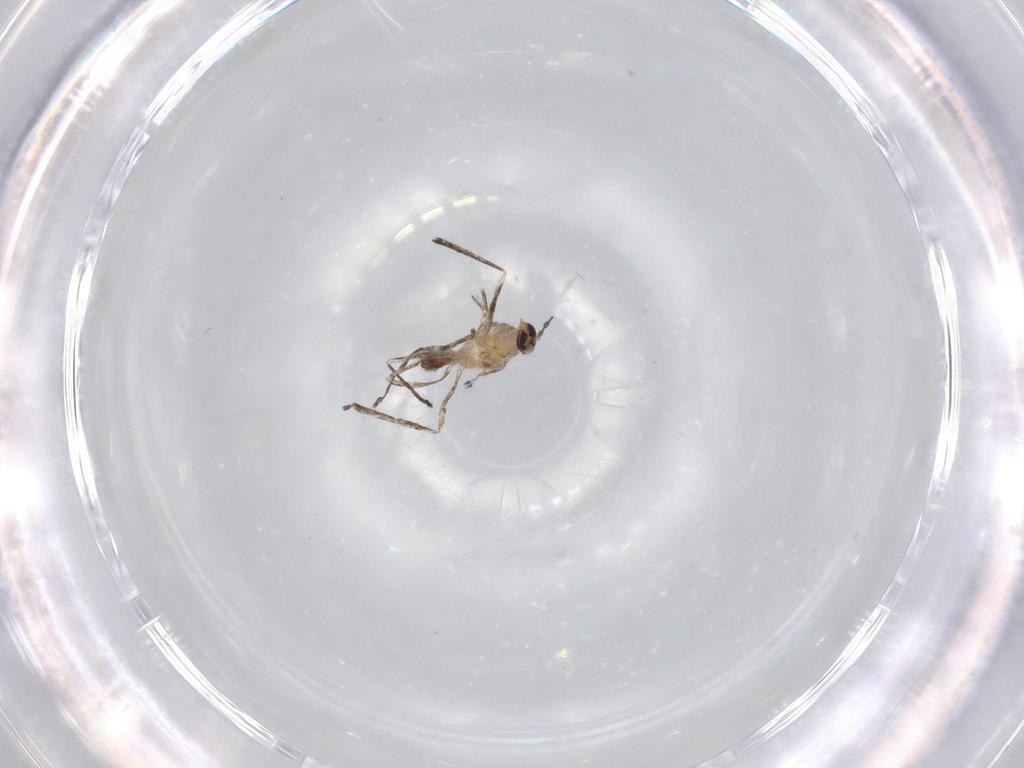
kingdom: Animalia
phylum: Arthropoda
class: Insecta
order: Diptera
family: Cecidomyiidae
